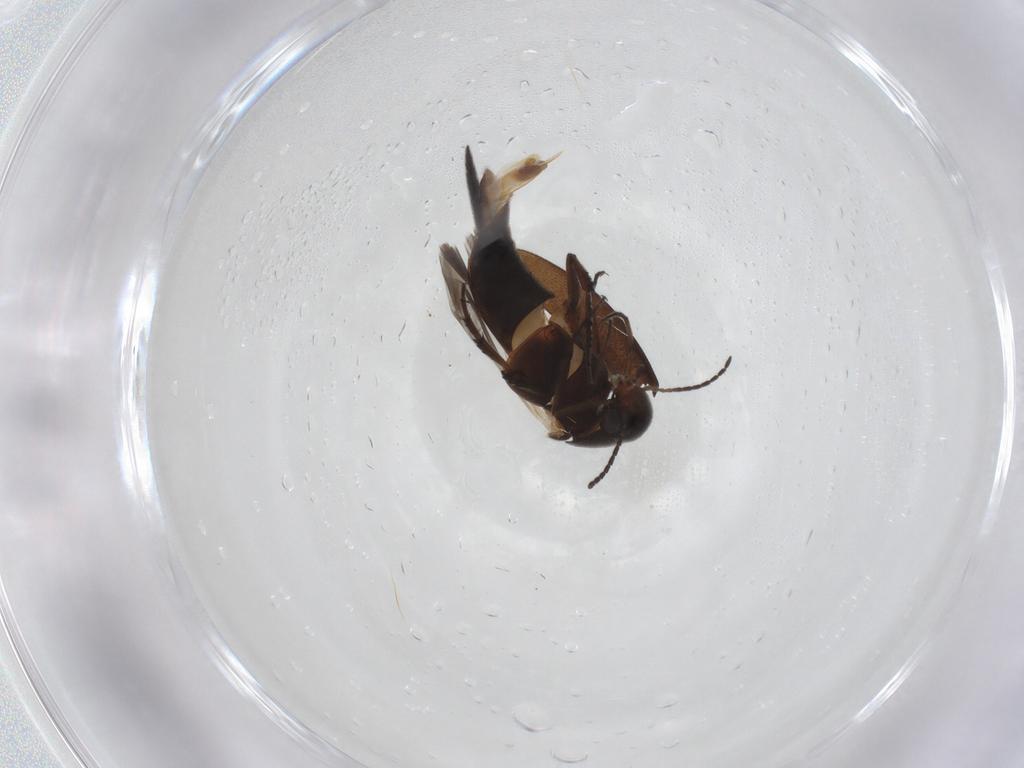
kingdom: Animalia
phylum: Arthropoda
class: Insecta
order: Coleoptera
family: Mordellidae
